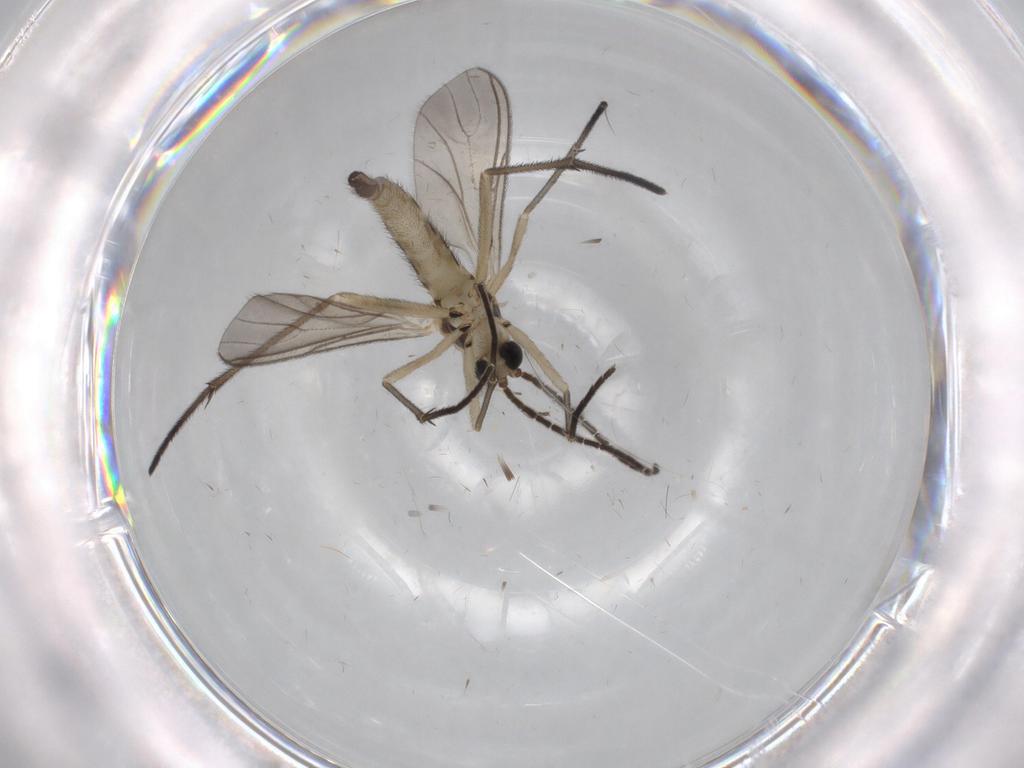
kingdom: Animalia
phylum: Arthropoda
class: Insecta
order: Diptera
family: Sciaridae
